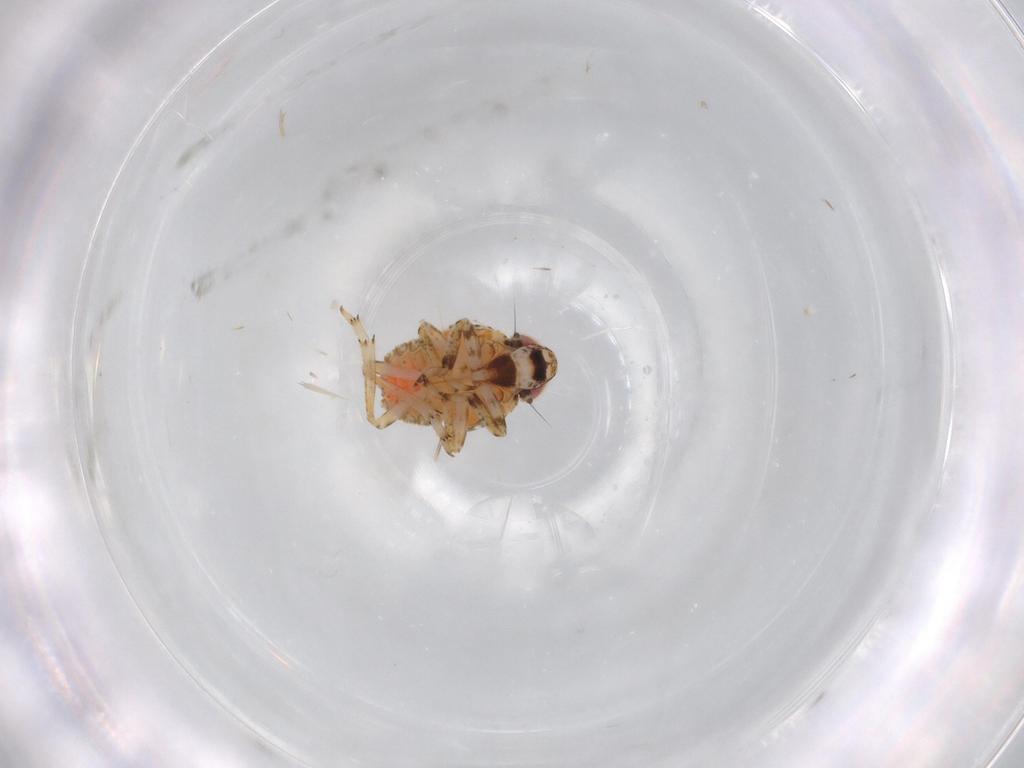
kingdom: Animalia
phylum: Arthropoda
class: Insecta
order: Hemiptera
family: Issidae
